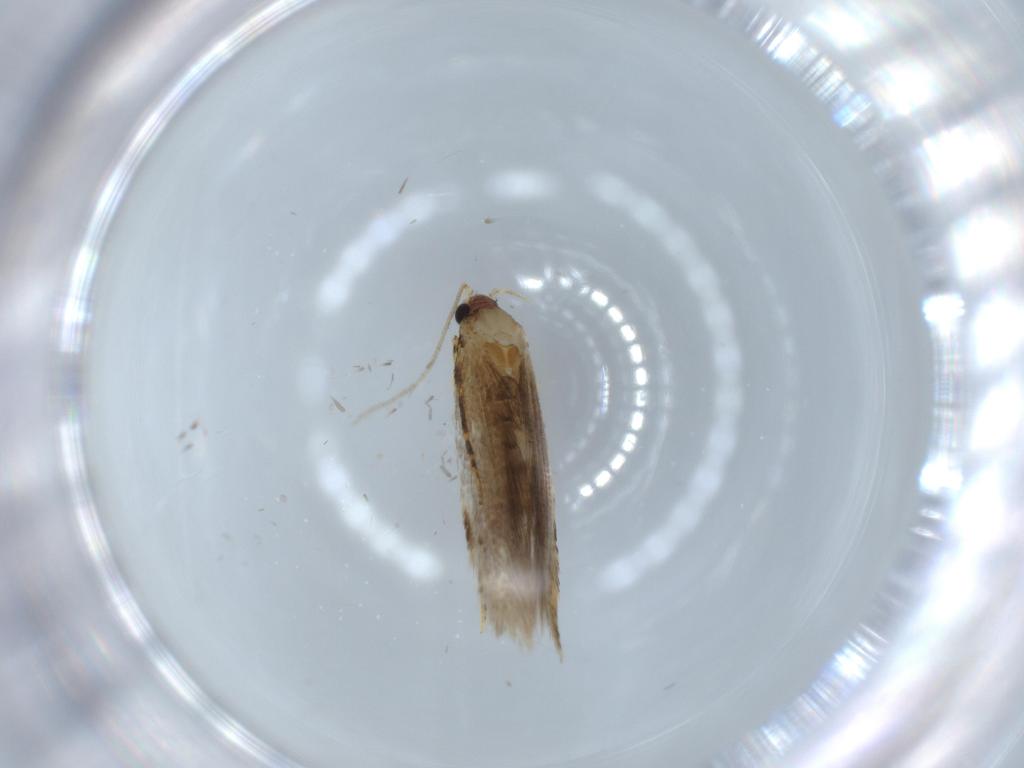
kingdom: Animalia
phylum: Arthropoda
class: Insecta
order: Lepidoptera
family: Tineidae
